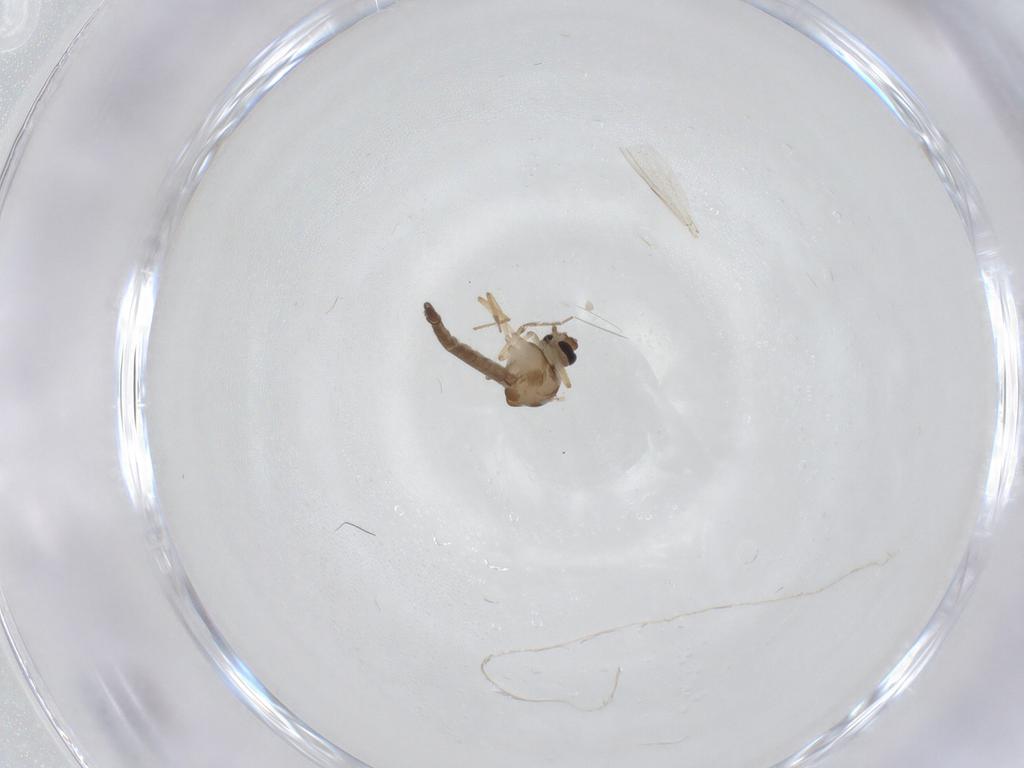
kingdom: Animalia
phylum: Arthropoda
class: Insecta
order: Diptera
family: Ceratopogonidae
